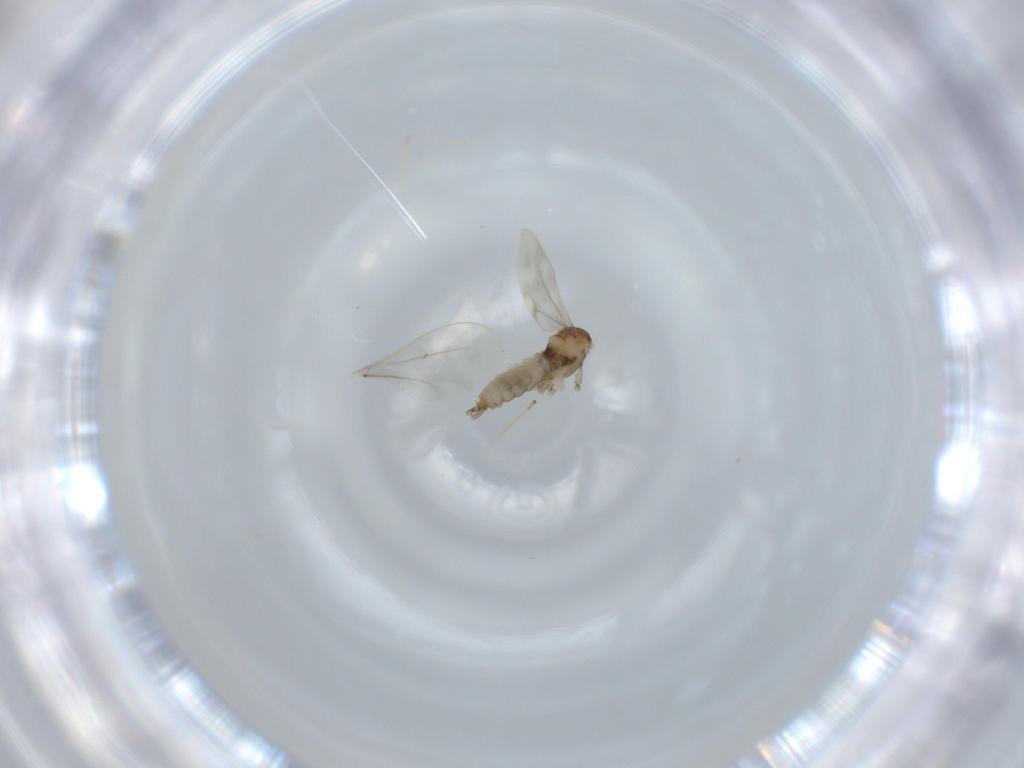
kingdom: Animalia
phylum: Arthropoda
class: Insecta
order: Diptera
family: Cecidomyiidae
